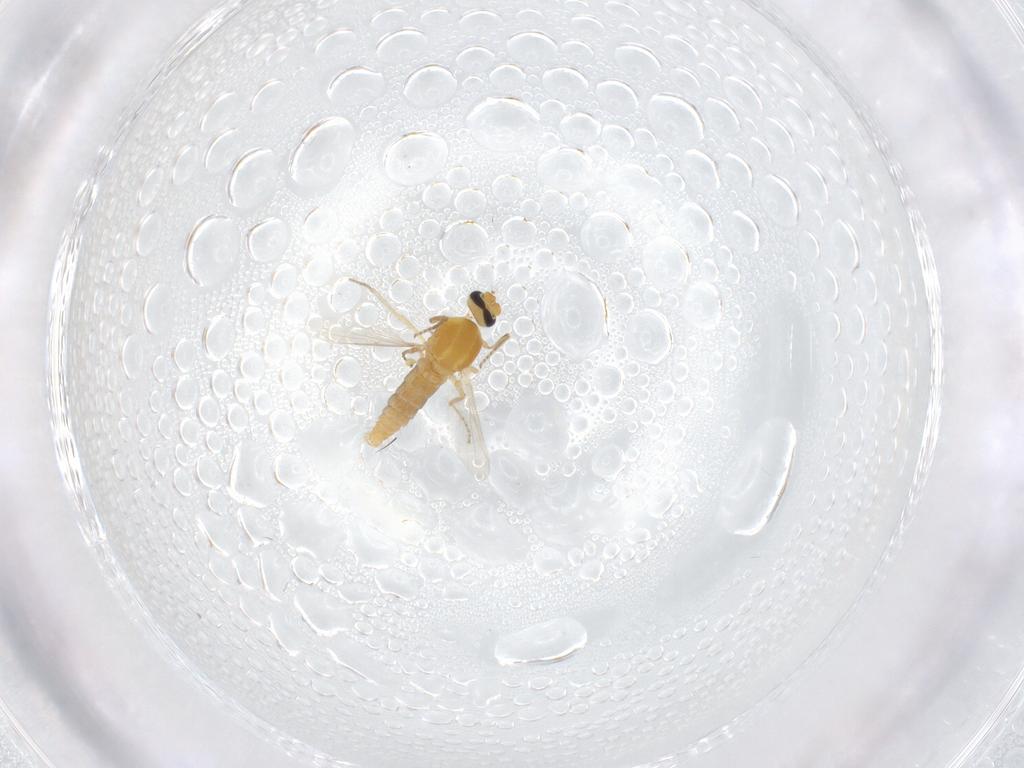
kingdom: Animalia
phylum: Arthropoda
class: Insecta
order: Diptera
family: Ceratopogonidae
